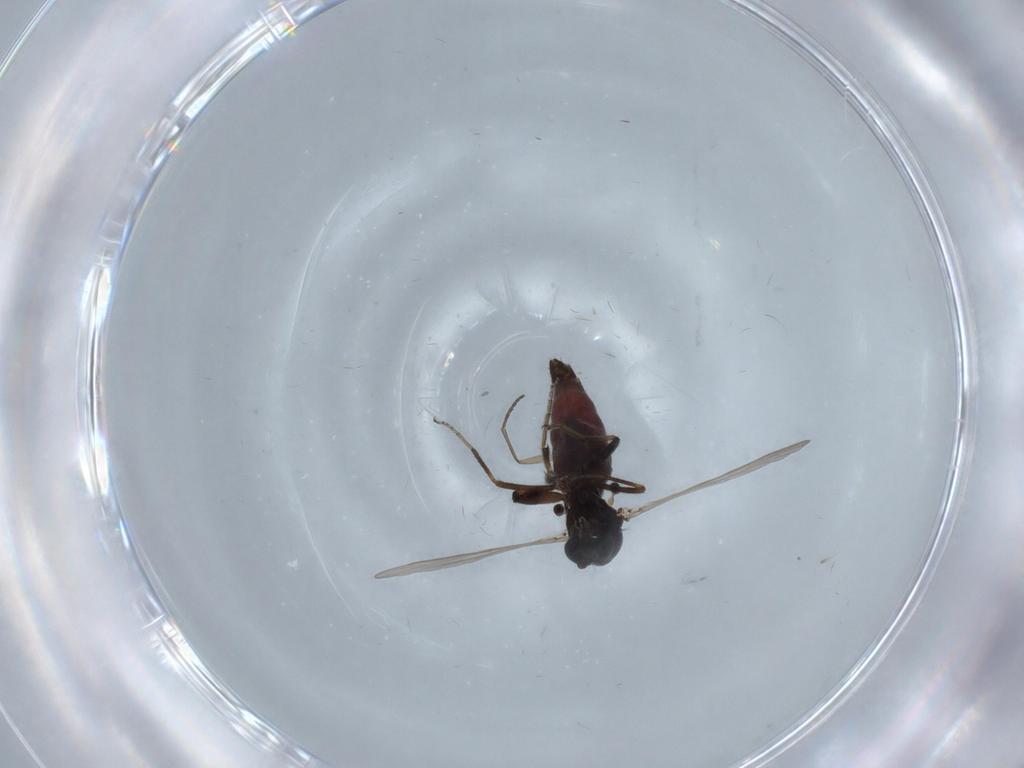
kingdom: Animalia
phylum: Arthropoda
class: Insecta
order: Diptera
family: Ceratopogonidae
